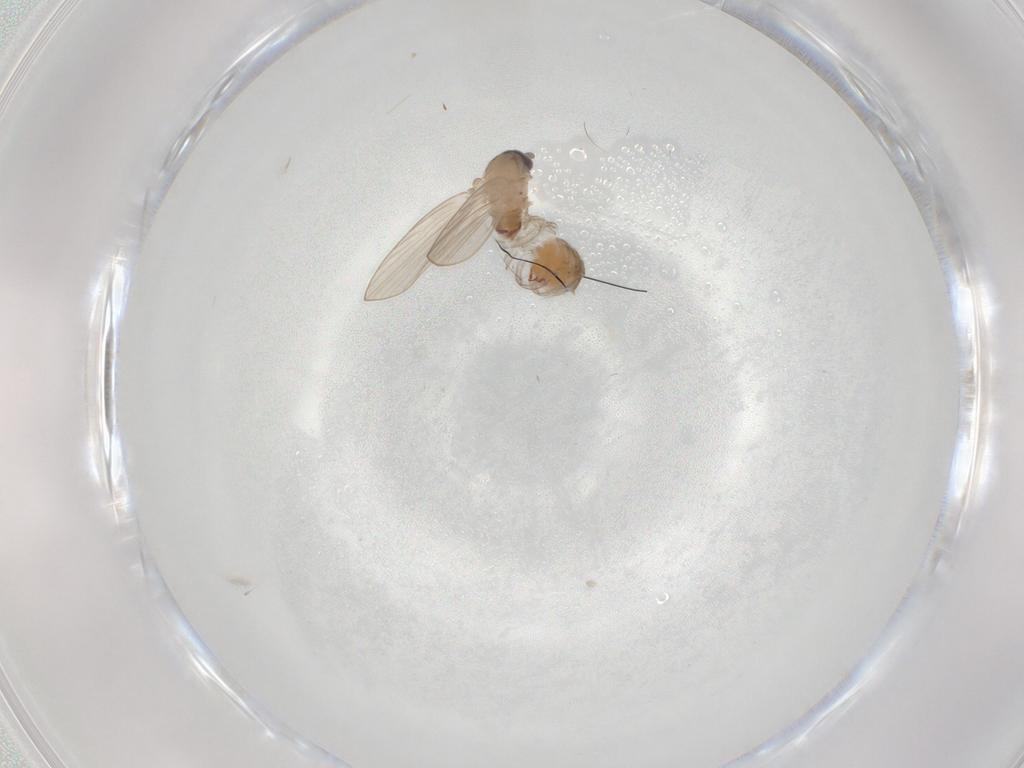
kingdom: Animalia
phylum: Arthropoda
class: Insecta
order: Diptera
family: Psychodidae
